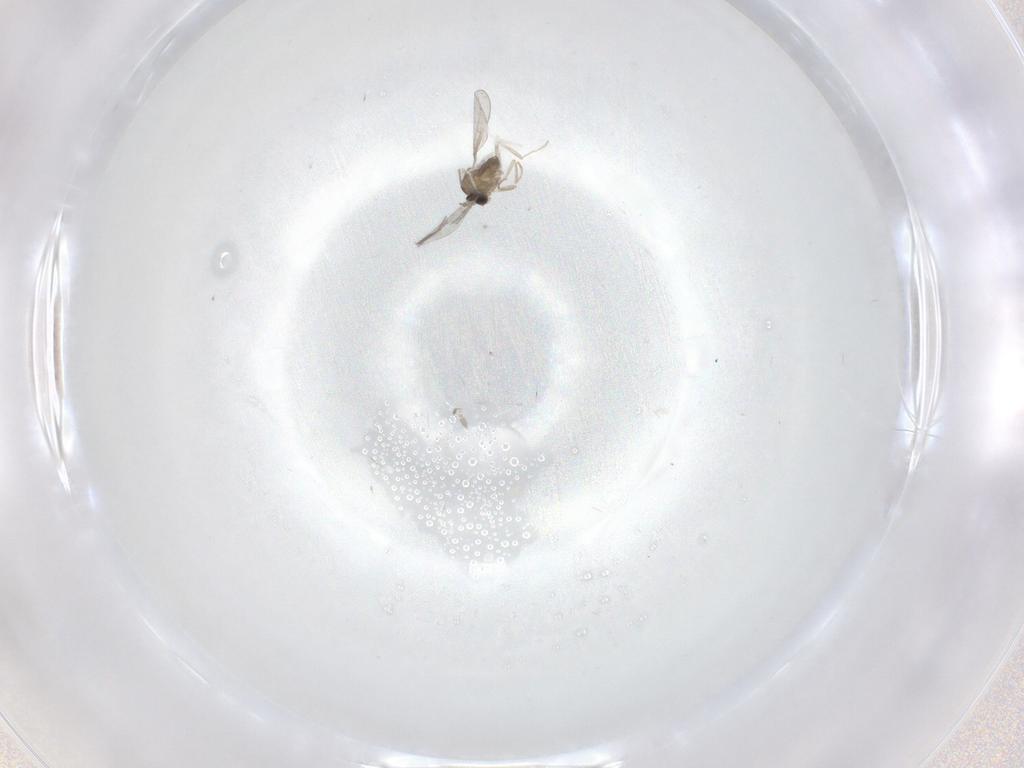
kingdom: Animalia
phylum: Arthropoda
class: Insecta
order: Diptera
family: Cecidomyiidae
